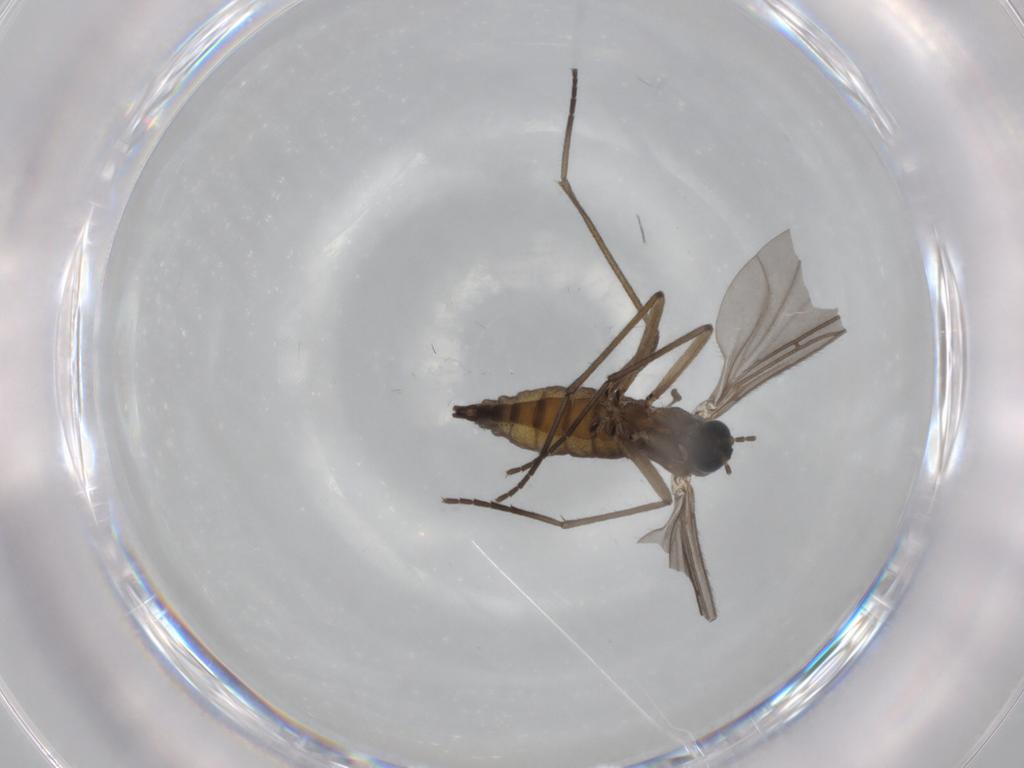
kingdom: Animalia
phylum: Arthropoda
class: Insecta
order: Diptera
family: Sciaridae
